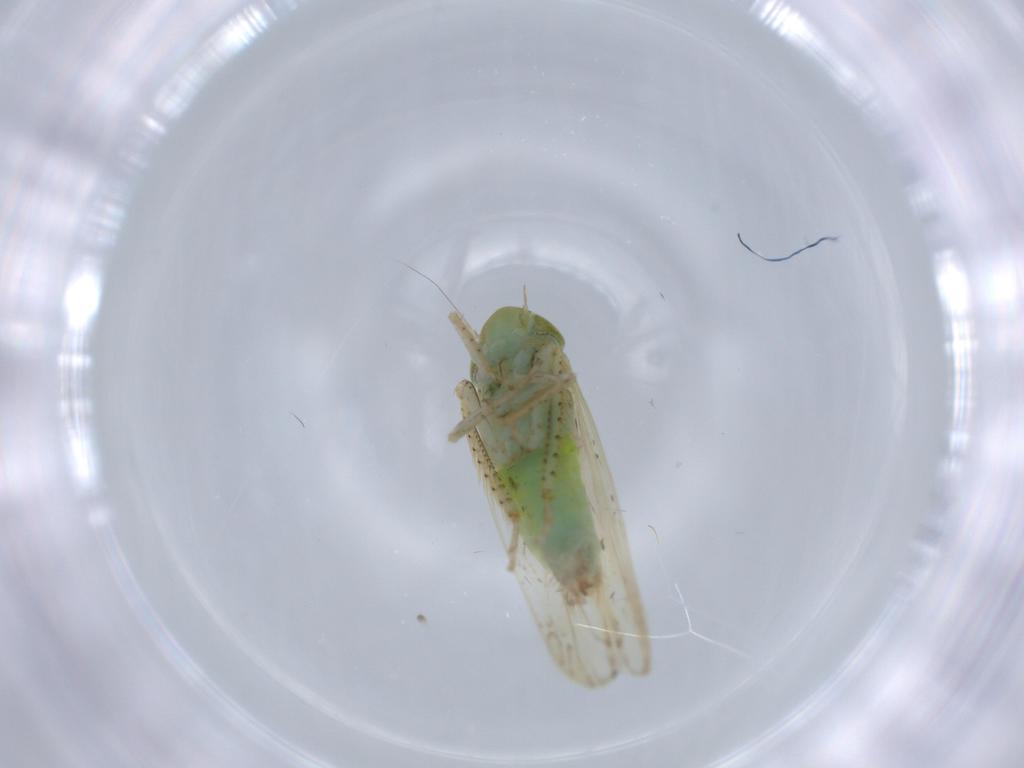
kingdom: Animalia
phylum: Arthropoda
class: Insecta
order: Hemiptera
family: Cicadellidae
